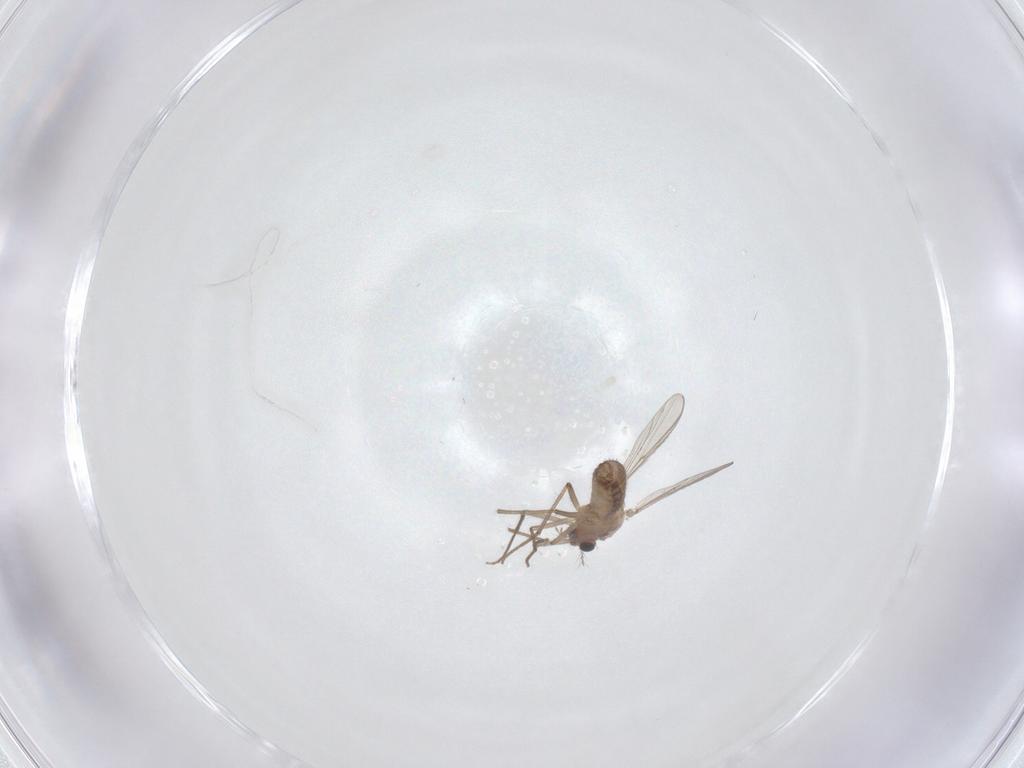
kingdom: Animalia
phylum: Arthropoda
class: Insecta
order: Diptera
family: Chironomidae
